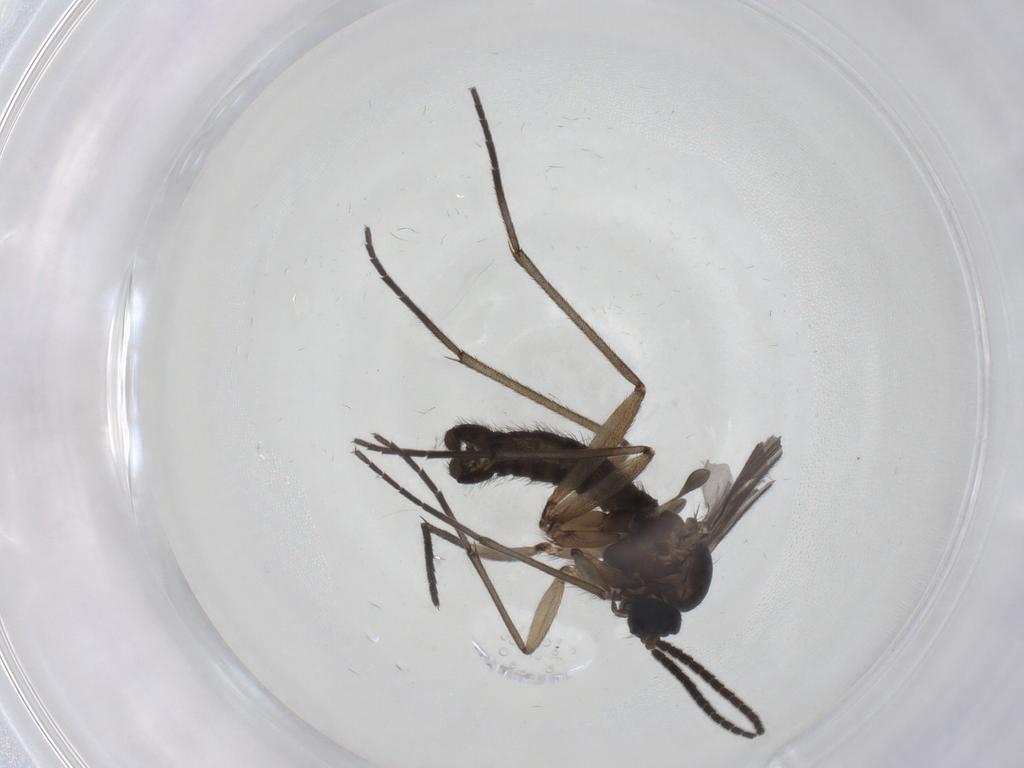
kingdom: Animalia
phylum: Arthropoda
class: Insecta
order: Diptera
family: Sciaridae
